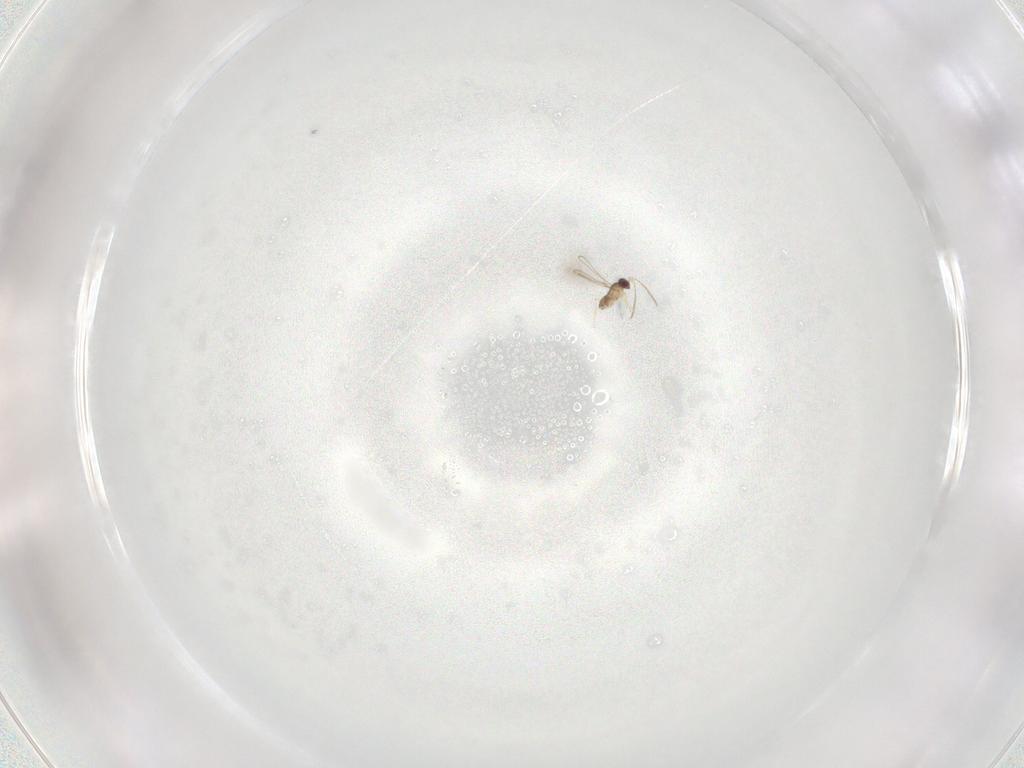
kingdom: Animalia
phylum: Arthropoda
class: Insecta
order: Hymenoptera
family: Mymaridae
